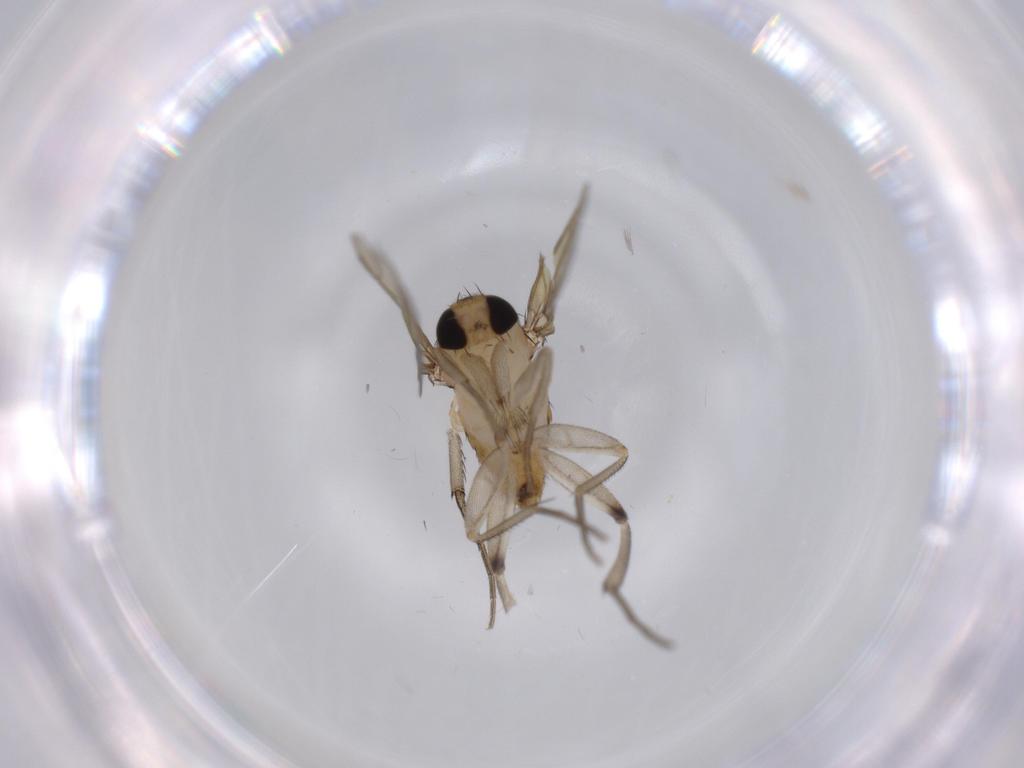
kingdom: Animalia
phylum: Arthropoda
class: Insecta
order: Diptera
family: Dolichopodidae
